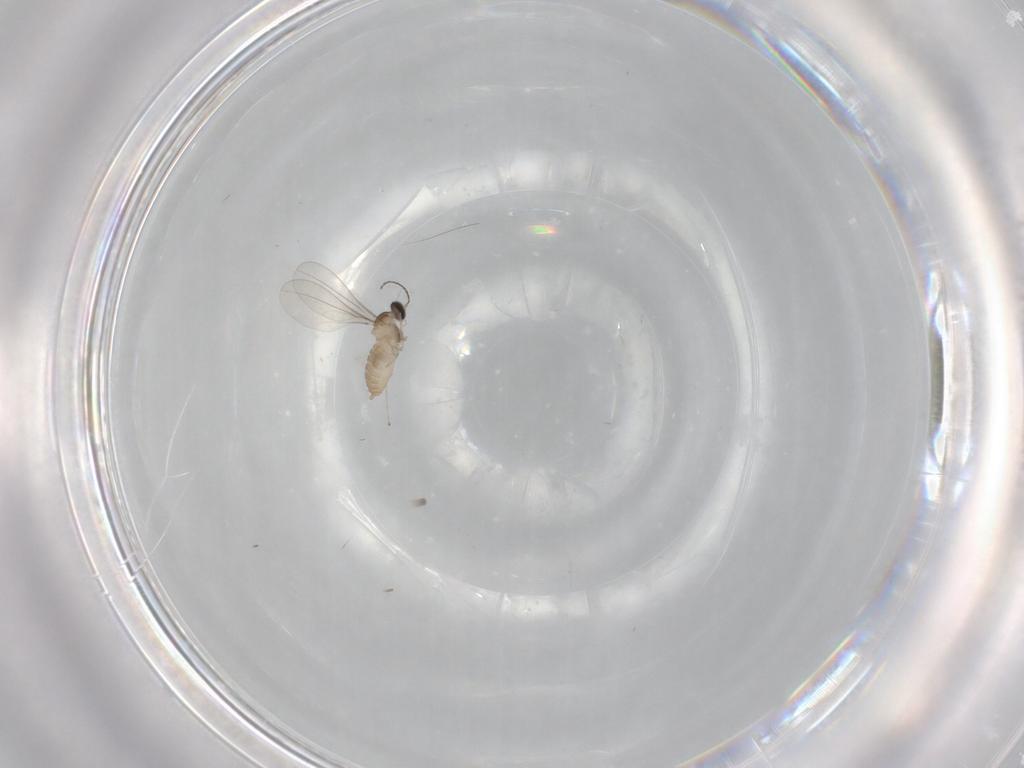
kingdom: Animalia
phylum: Arthropoda
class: Insecta
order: Diptera
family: Cecidomyiidae
